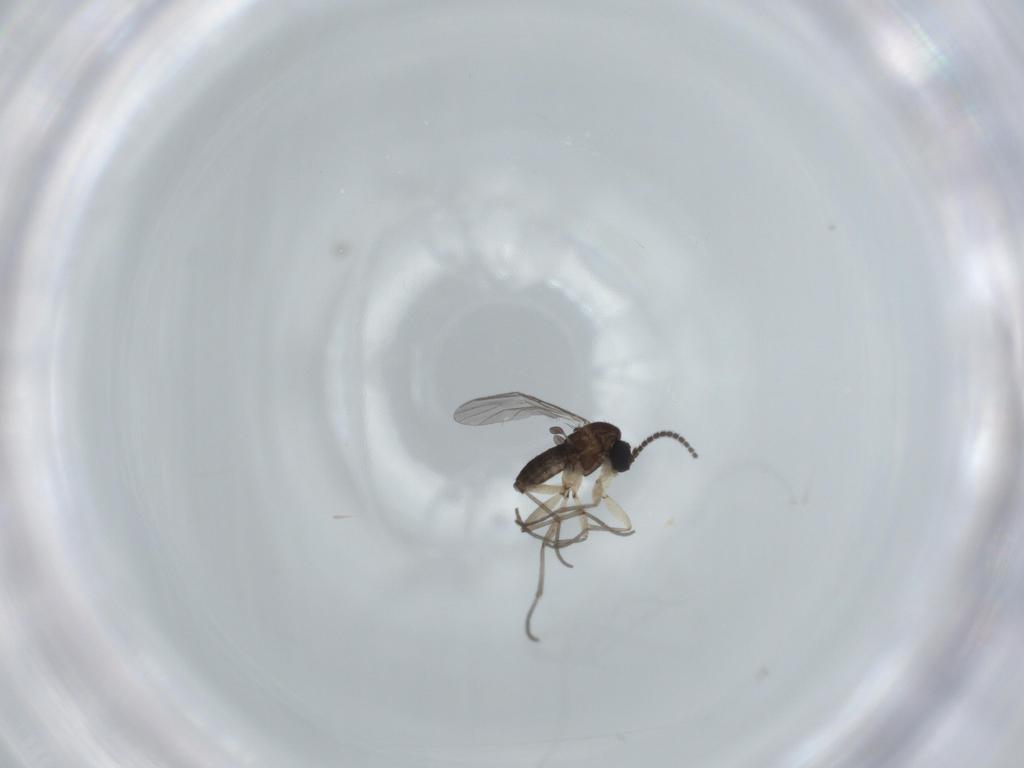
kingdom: Animalia
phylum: Arthropoda
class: Insecta
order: Diptera
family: Sciaridae
